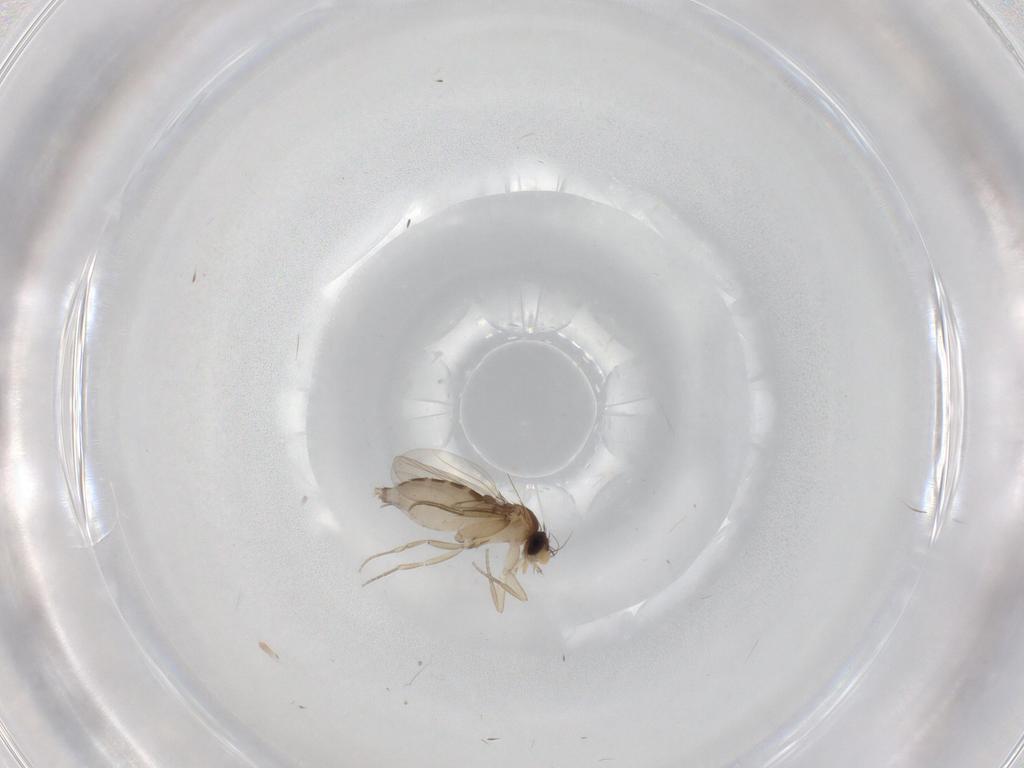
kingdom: Animalia
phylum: Arthropoda
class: Insecta
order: Diptera
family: Phoridae
